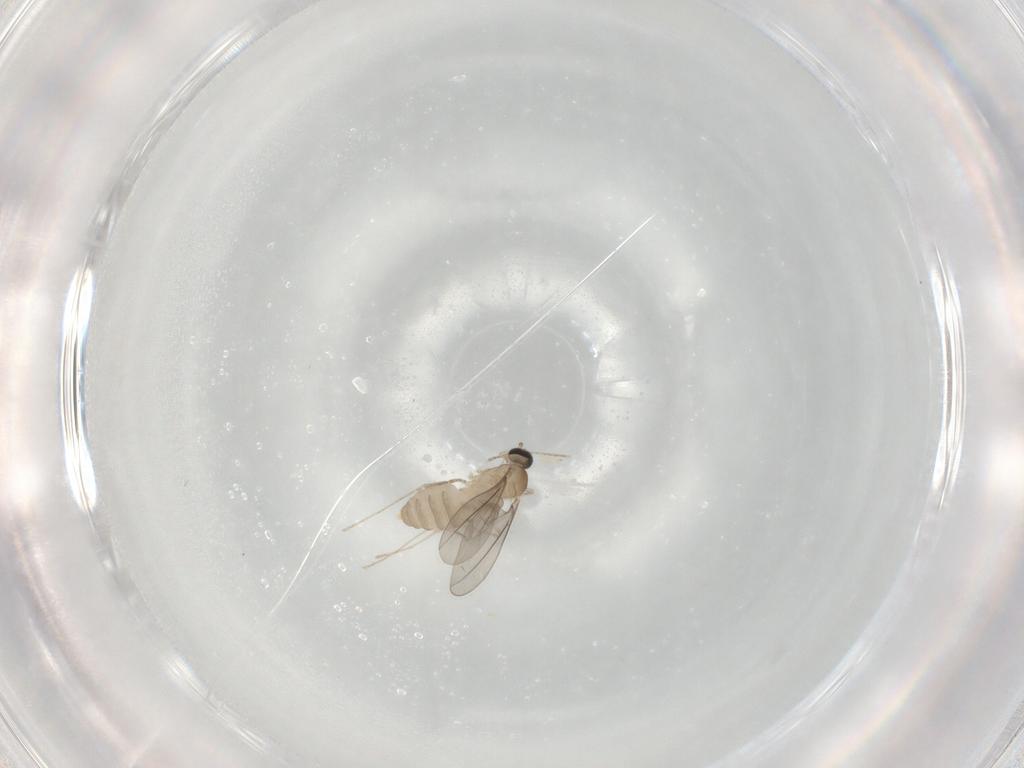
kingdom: Animalia
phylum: Arthropoda
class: Insecta
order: Diptera
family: Cecidomyiidae
